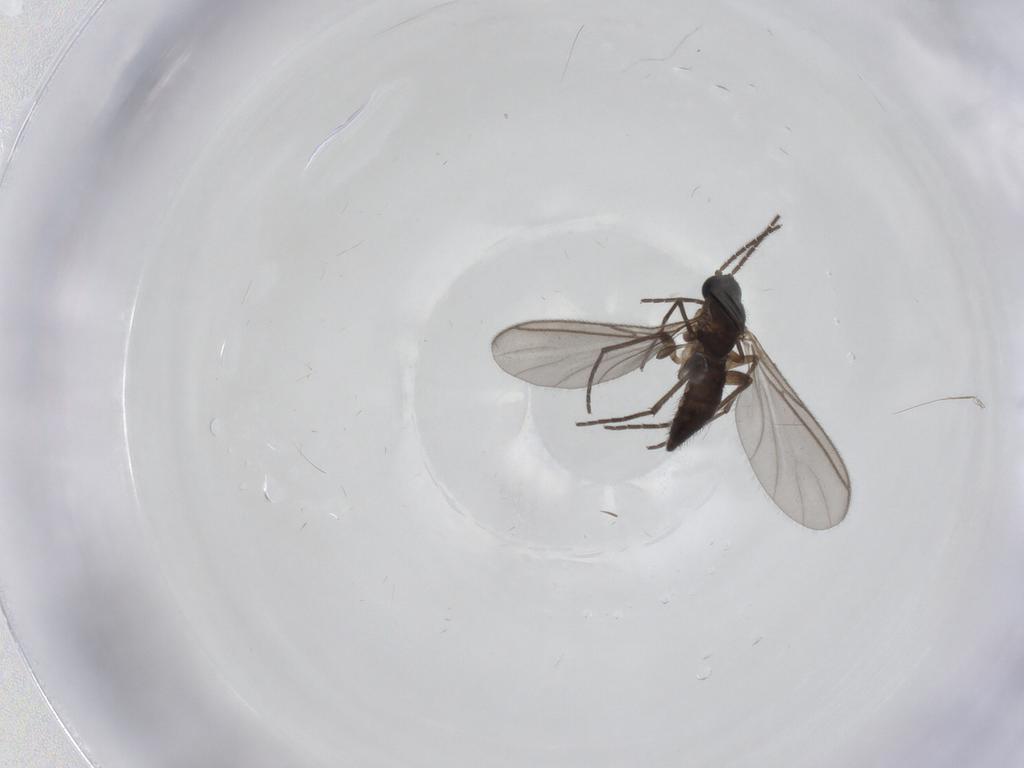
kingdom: Animalia
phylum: Arthropoda
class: Insecta
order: Diptera
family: Sciaridae
